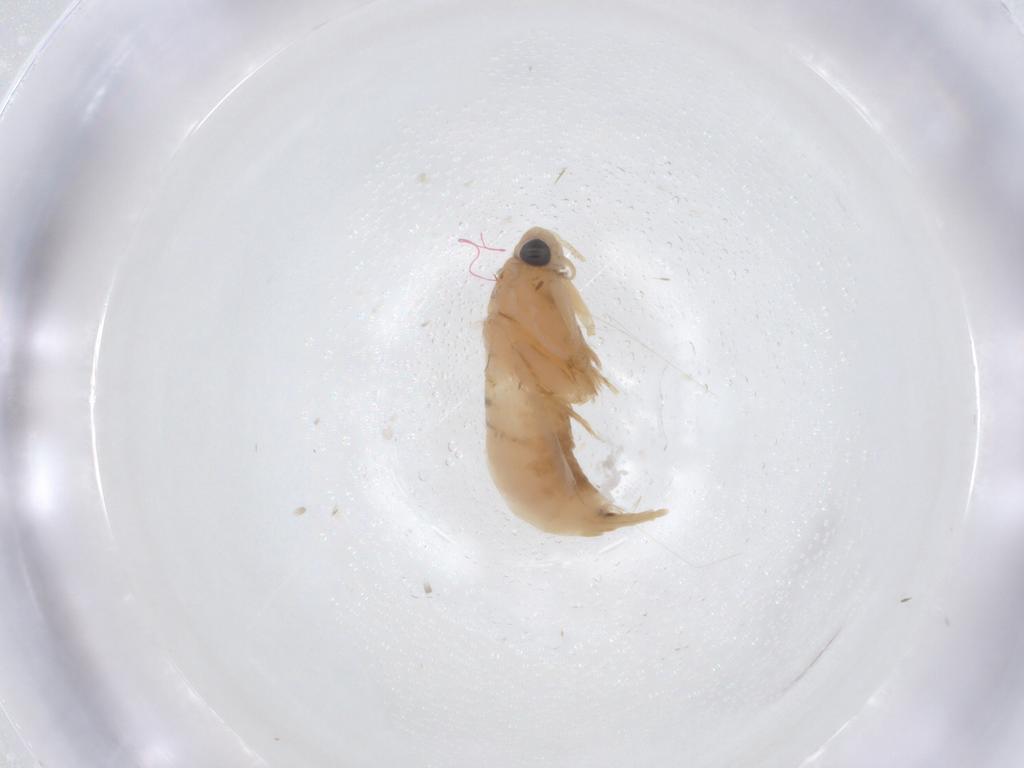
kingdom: Animalia
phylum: Arthropoda
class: Insecta
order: Lepidoptera
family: Tineidae
